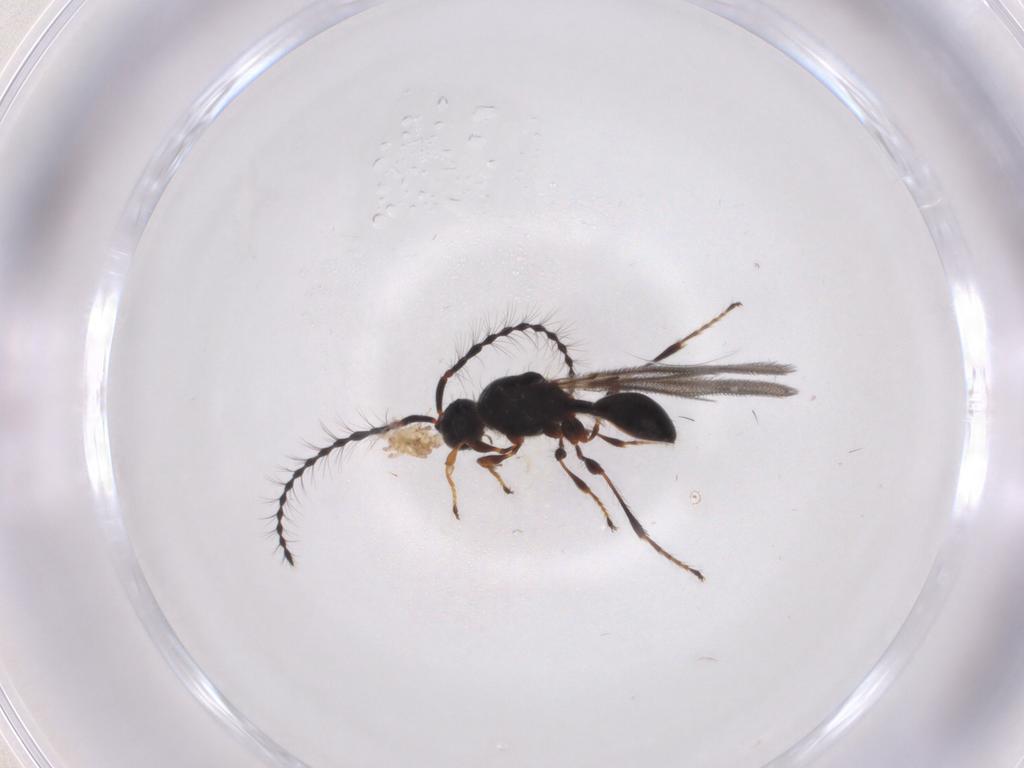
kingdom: Animalia
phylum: Arthropoda
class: Insecta
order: Hymenoptera
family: Diapriidae
